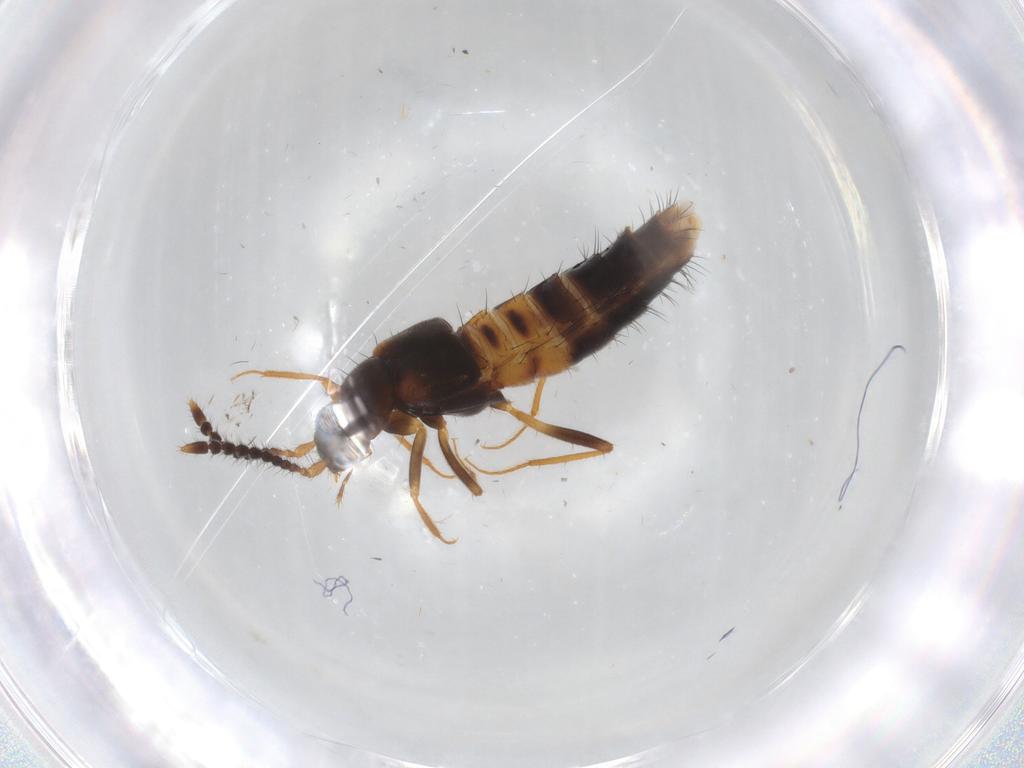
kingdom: Animalia
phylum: Arthropoda
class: Insecta
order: Coleoptera
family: Staphylinidae
